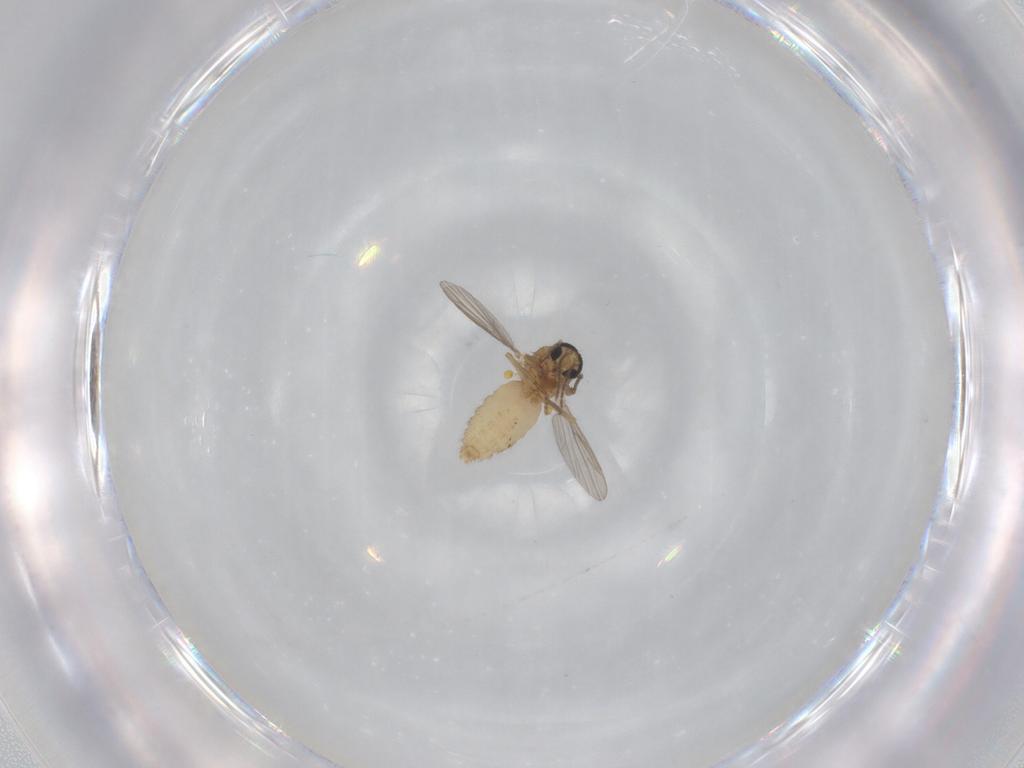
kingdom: Animalia
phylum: Arthropoda
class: Insecta
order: Diptera
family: Ceratopogonidae
